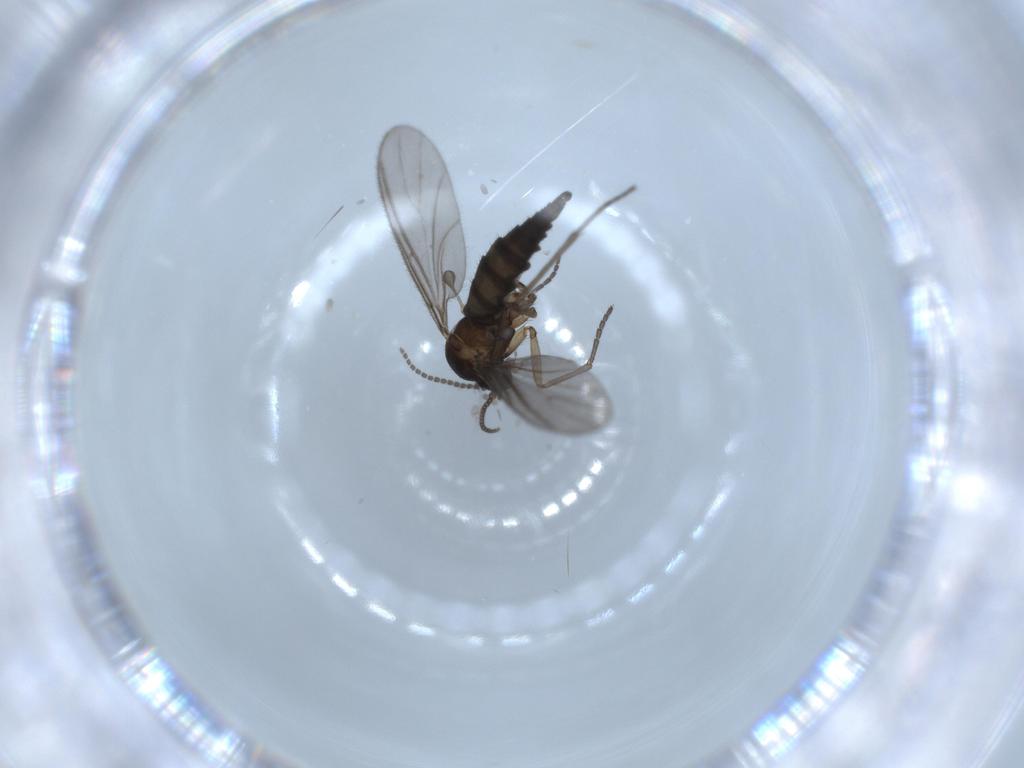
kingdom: Animalia
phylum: Arthropoda
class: Insecta
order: Diptera
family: Sciaridae
